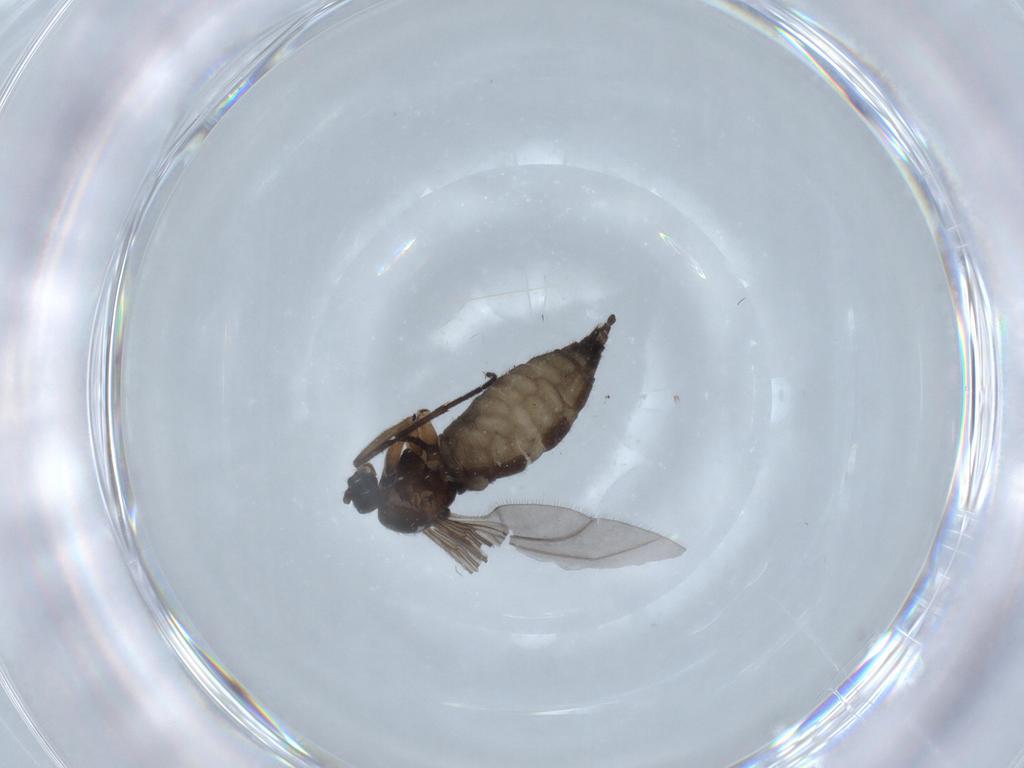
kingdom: Animalia
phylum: Arthropoda
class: Insecta
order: Diptera
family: Sciaridae
